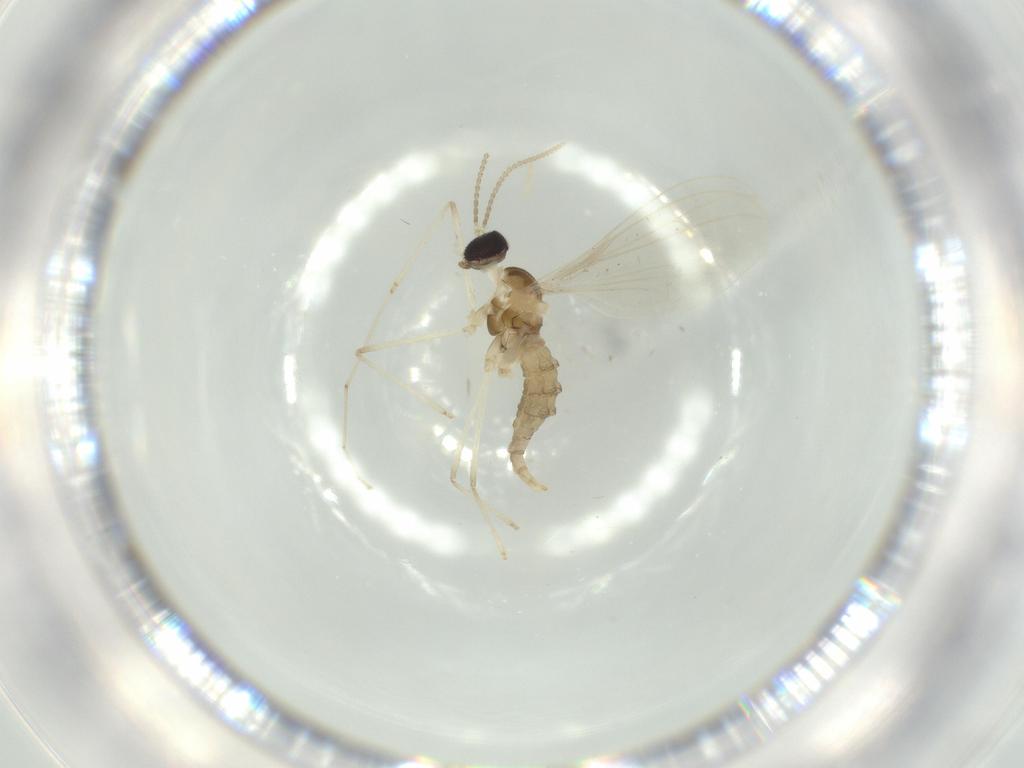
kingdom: Animalia
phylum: Arthropoda
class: Insecta
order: Diptera
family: Cecidomyiidae
